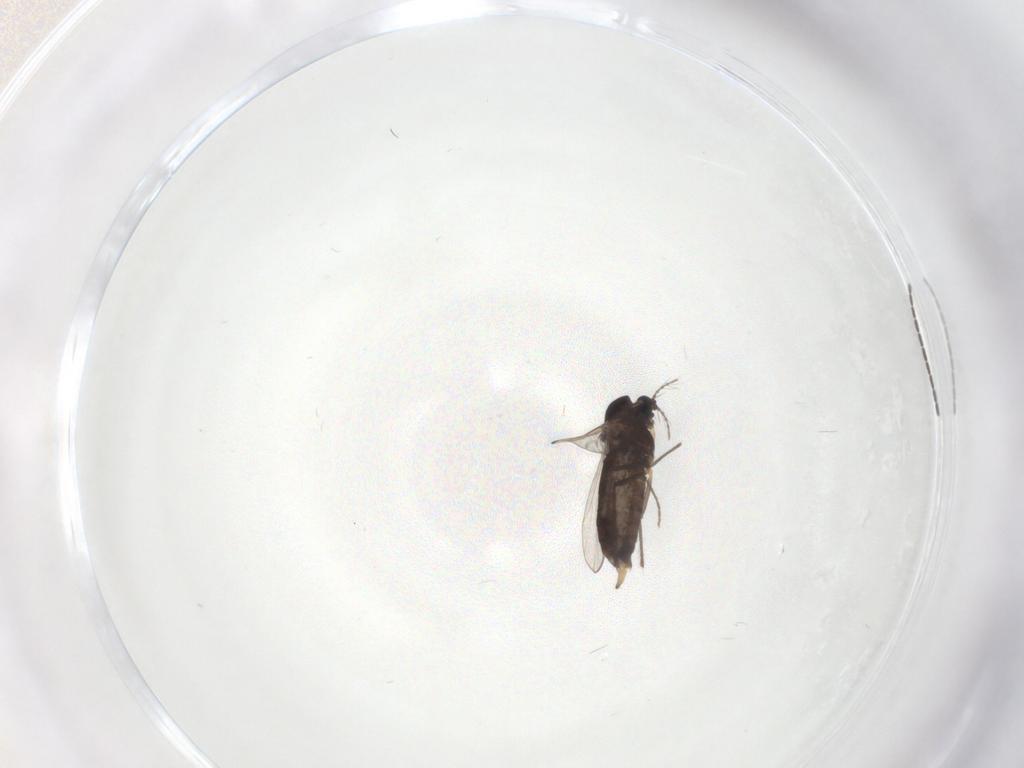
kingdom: Animalia
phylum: Arthropoda
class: Insecta
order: Diptera
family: Sciaridae
